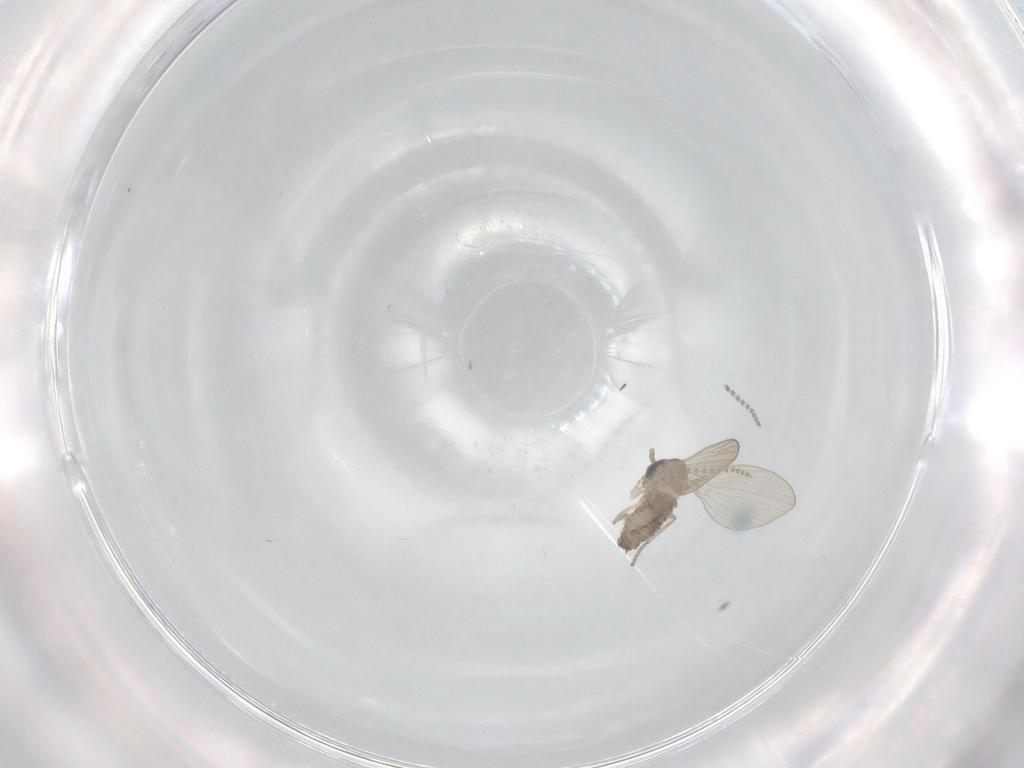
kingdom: Animalia
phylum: Arthropoda
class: Insecta
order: Diptera
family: Psychodidae
